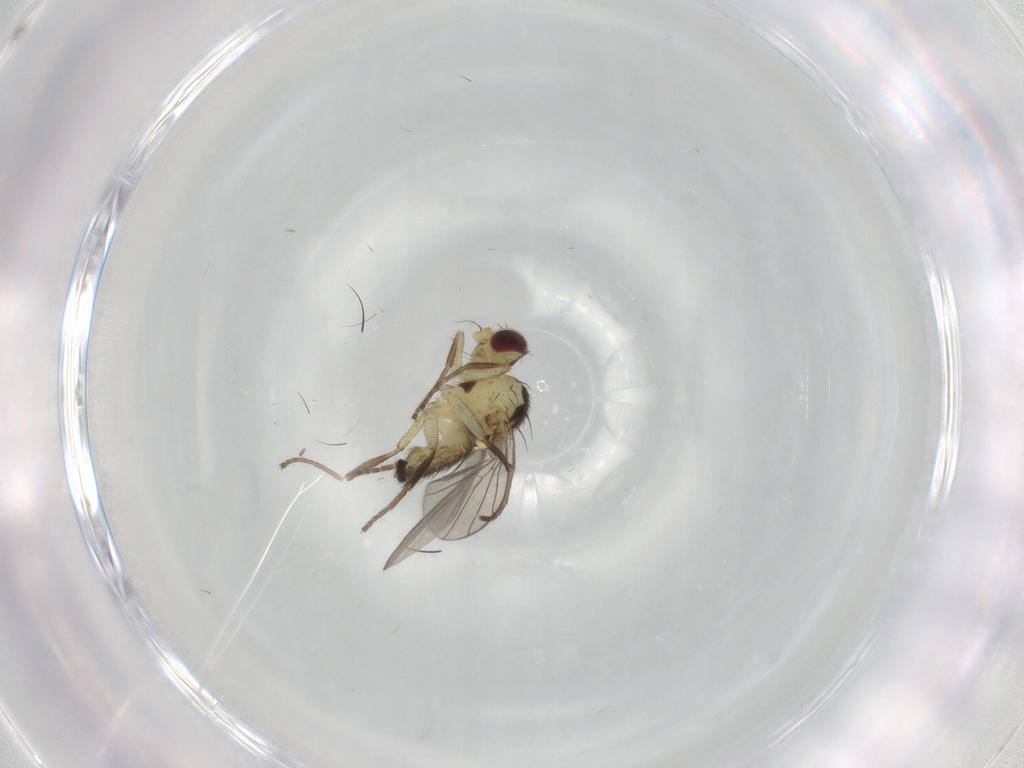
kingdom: Animalia
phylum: Arthropoda
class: Insecta
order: Diptera
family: Agromyzidae
